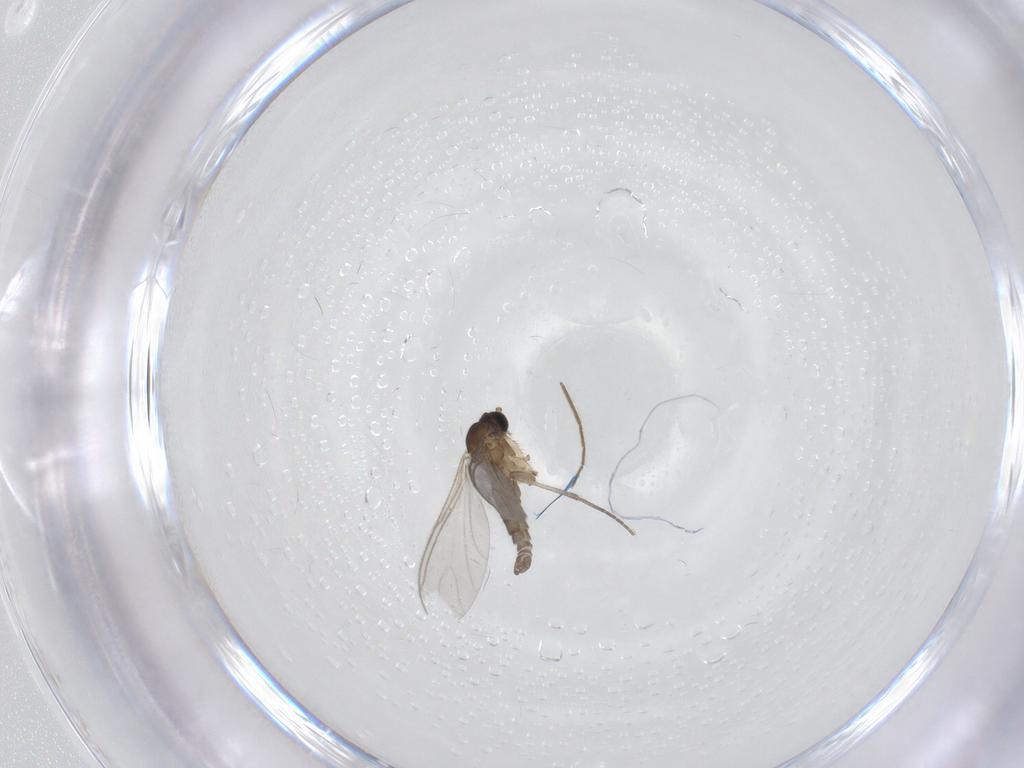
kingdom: Animalia
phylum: Arthropoda
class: Insecta
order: Diptera
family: Sciaridae
